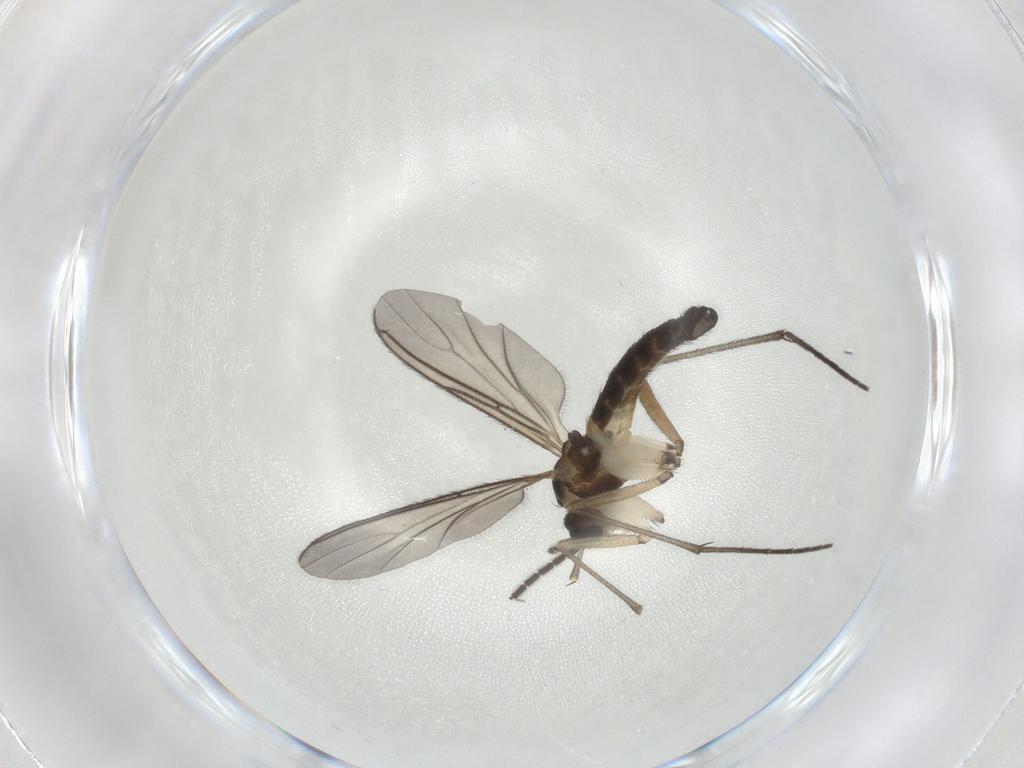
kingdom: Animalia
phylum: Arthropoda
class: Insecta
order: Diptera
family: Sciaridae
